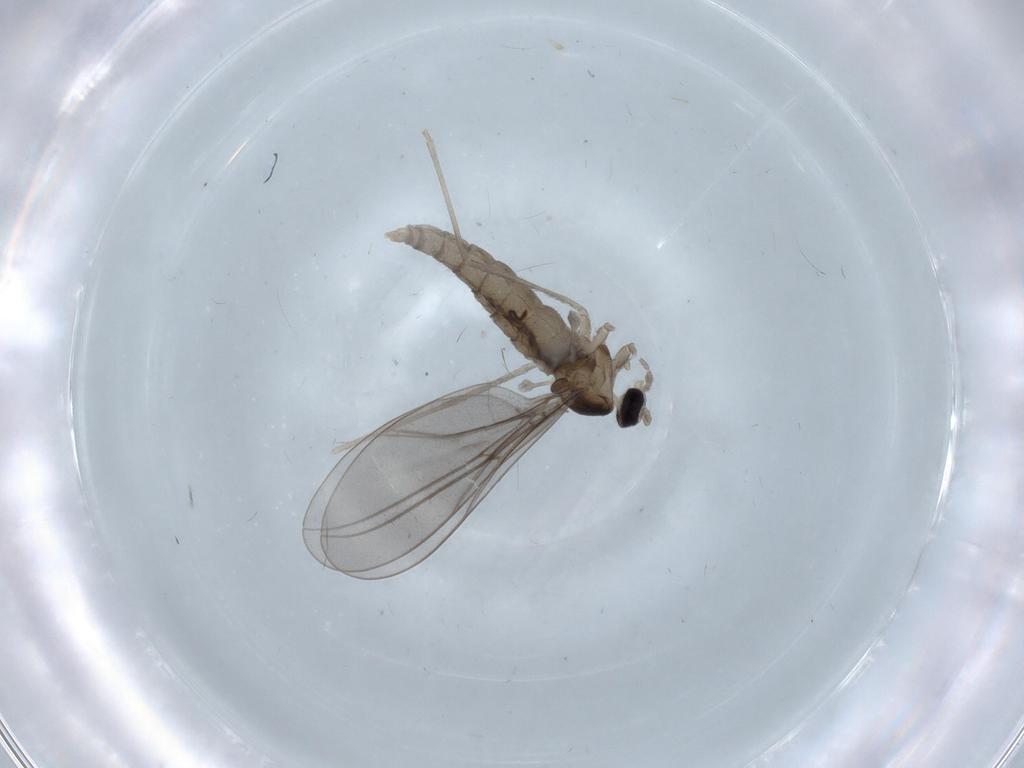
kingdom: Animalia
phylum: Arthropoda
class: Insecta
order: Diptera
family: Cecidomyiidae
